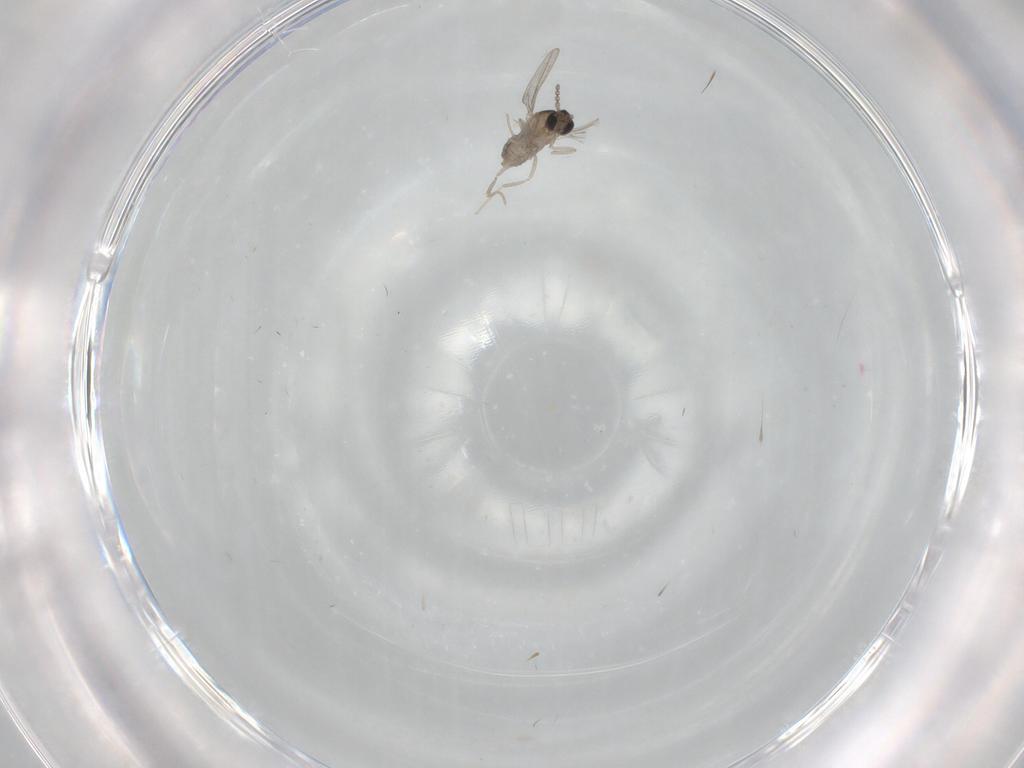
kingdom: Animalia
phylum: Arthropoda
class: Insecta
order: Diptera
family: Cecidomyiidae
